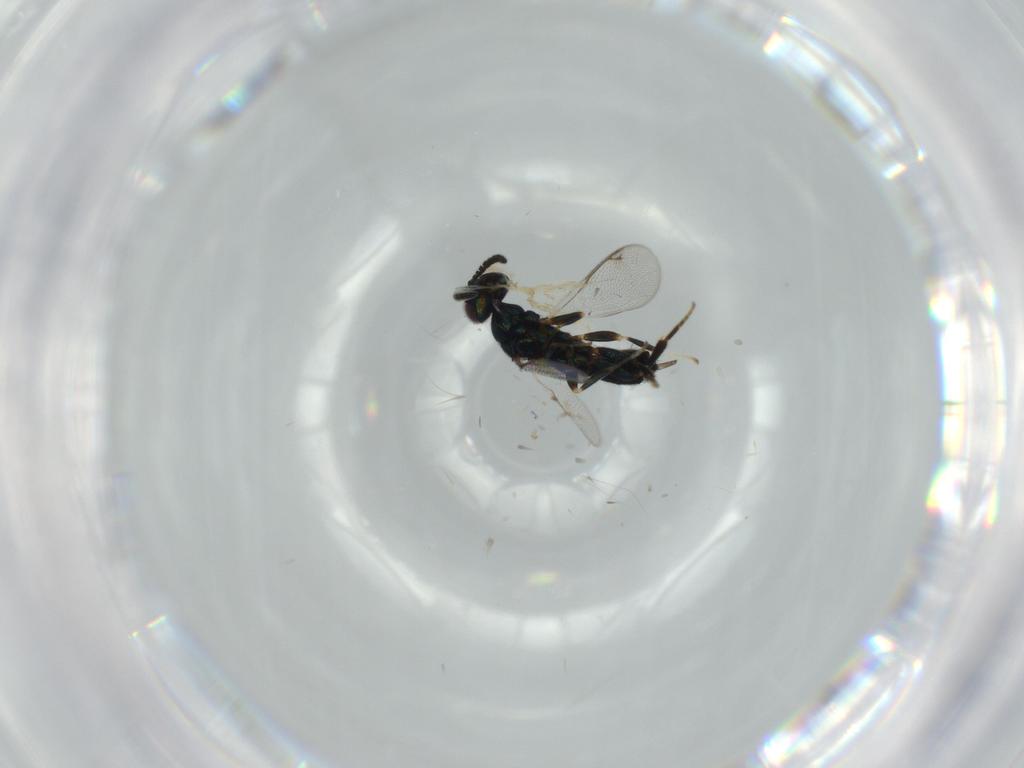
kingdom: Animalia
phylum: Arthropoda
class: Insecta
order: Hymenoptera
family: Cleonyminae
